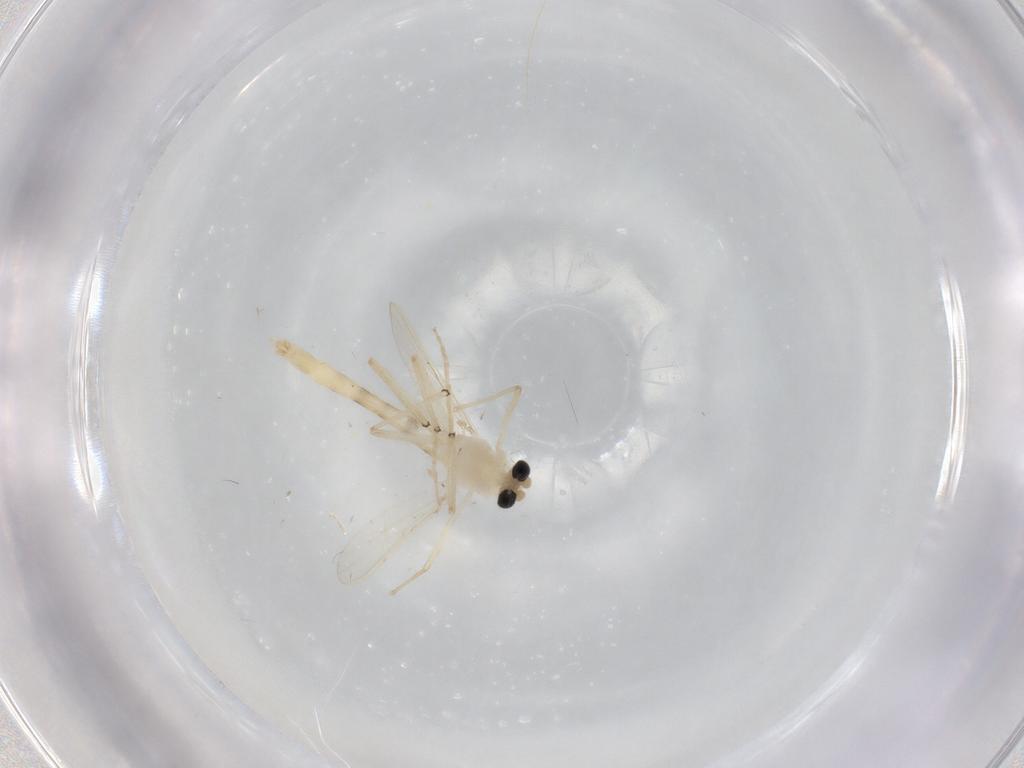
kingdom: Animalia
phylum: Arthropoda
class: Insecta
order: Diptera
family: Chironomidae
